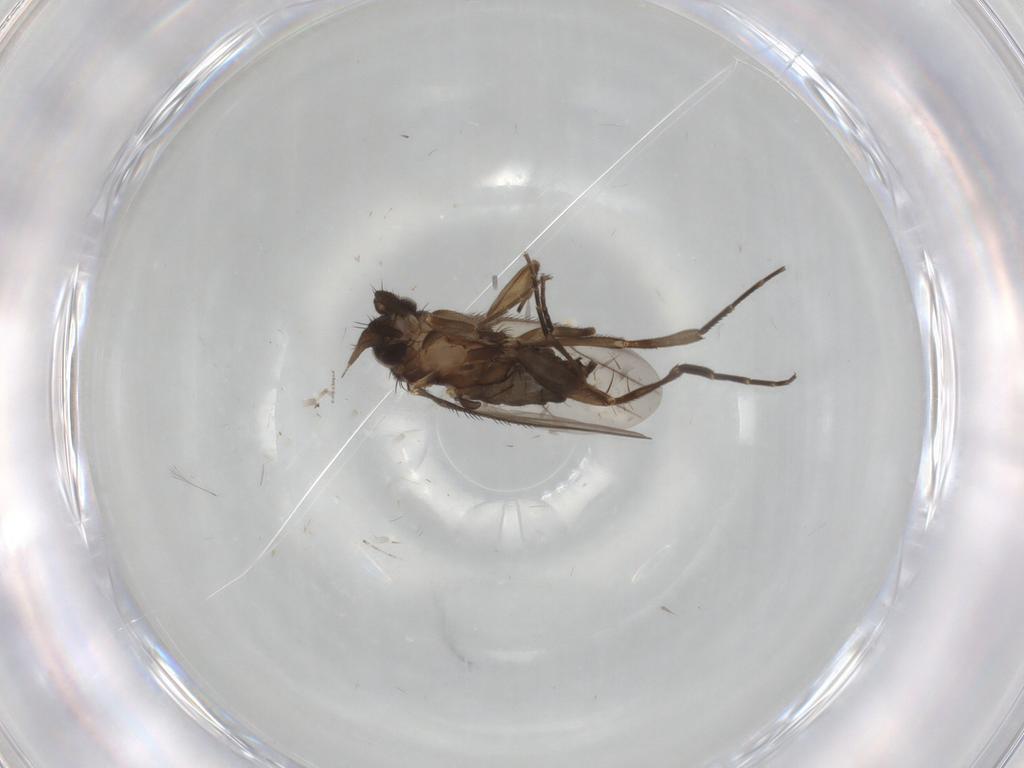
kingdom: Animalia
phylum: Arthropoda
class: Insecta
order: Diptera
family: Phoridae
